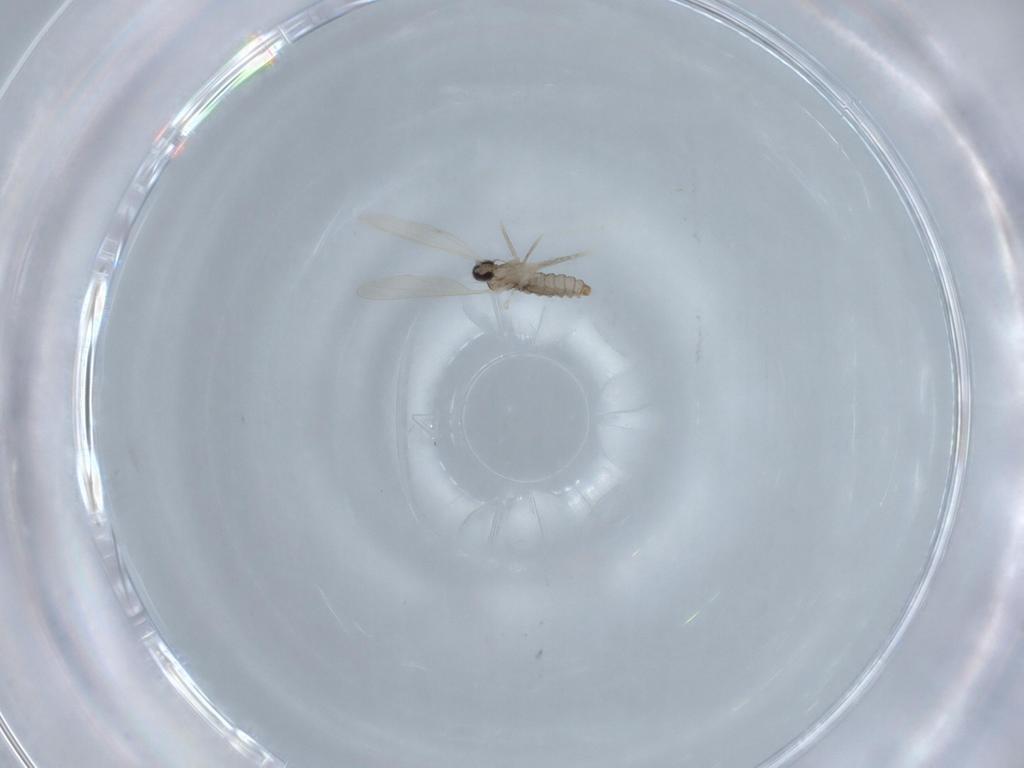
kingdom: Animalia
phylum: Arthropoda
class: Insecta
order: Diptera
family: Cecidomyiidae
